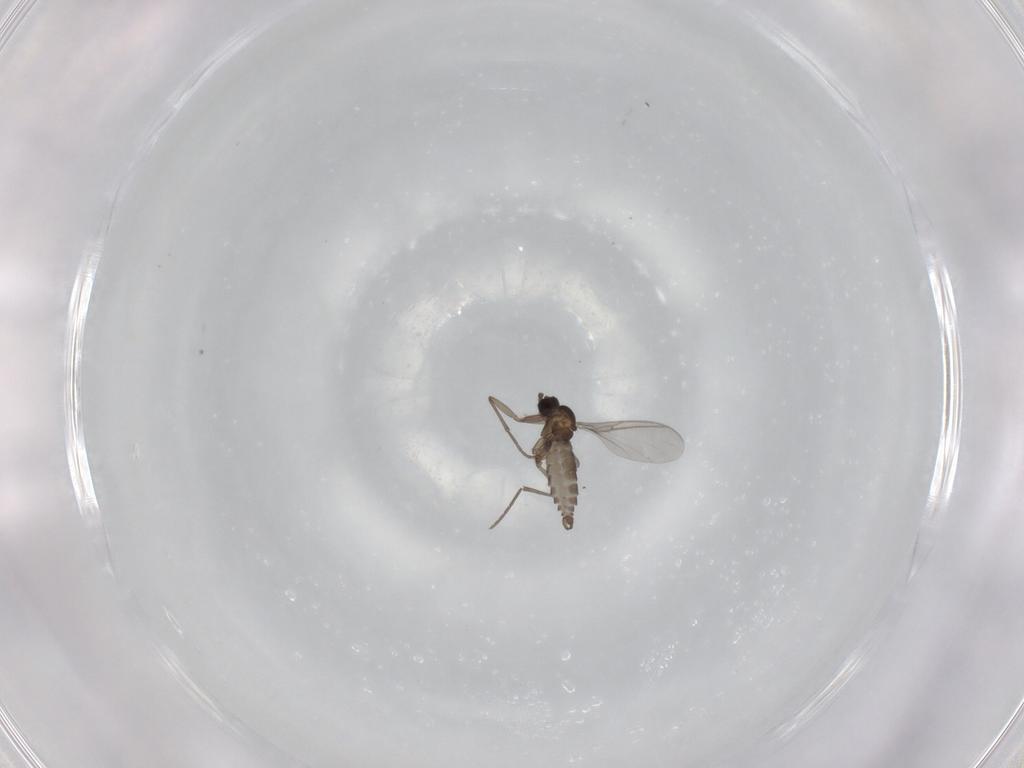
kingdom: Animalia
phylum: Arthropoda
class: Insecta
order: Diptera
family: Sciaridae
